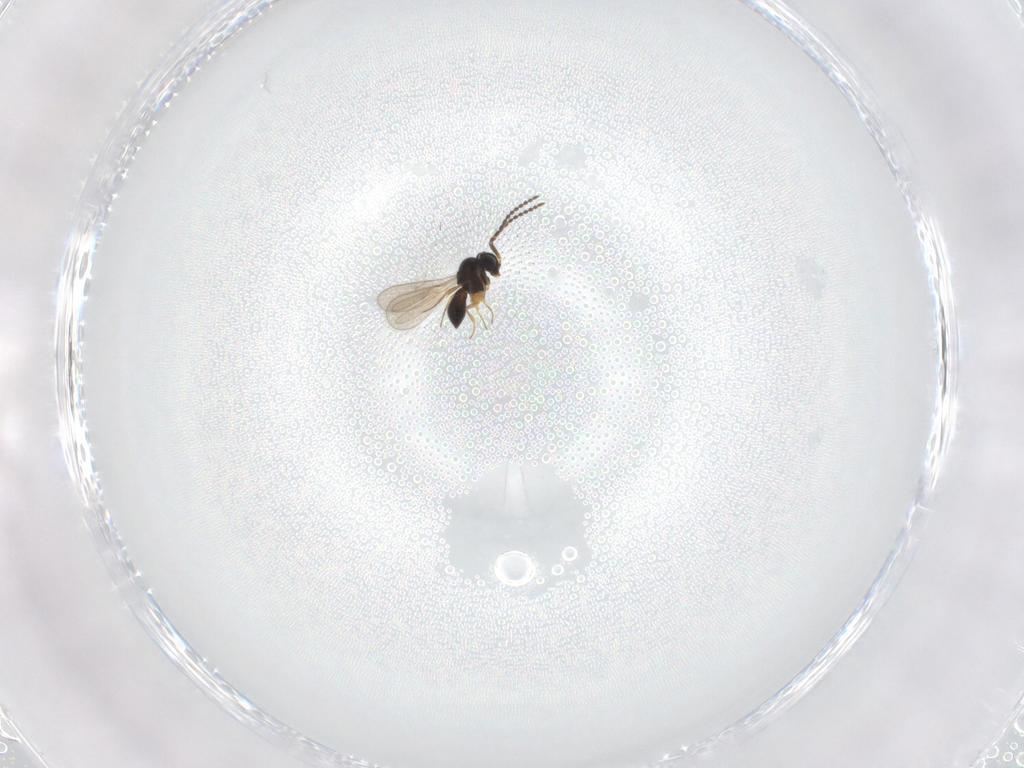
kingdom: Animalia
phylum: Arthropoda
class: Insecta
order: Hymenoptera
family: Scelionidae
